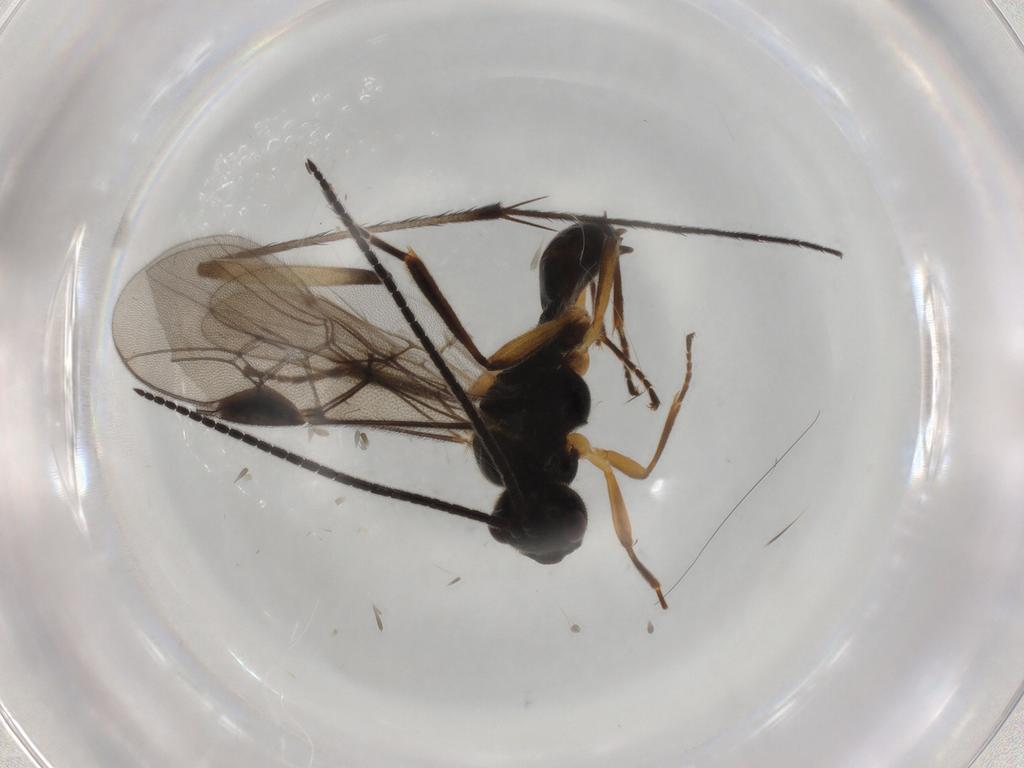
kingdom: Animalia
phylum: Arthropoda
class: Insecta
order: Hymenoptera
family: Braconidae
